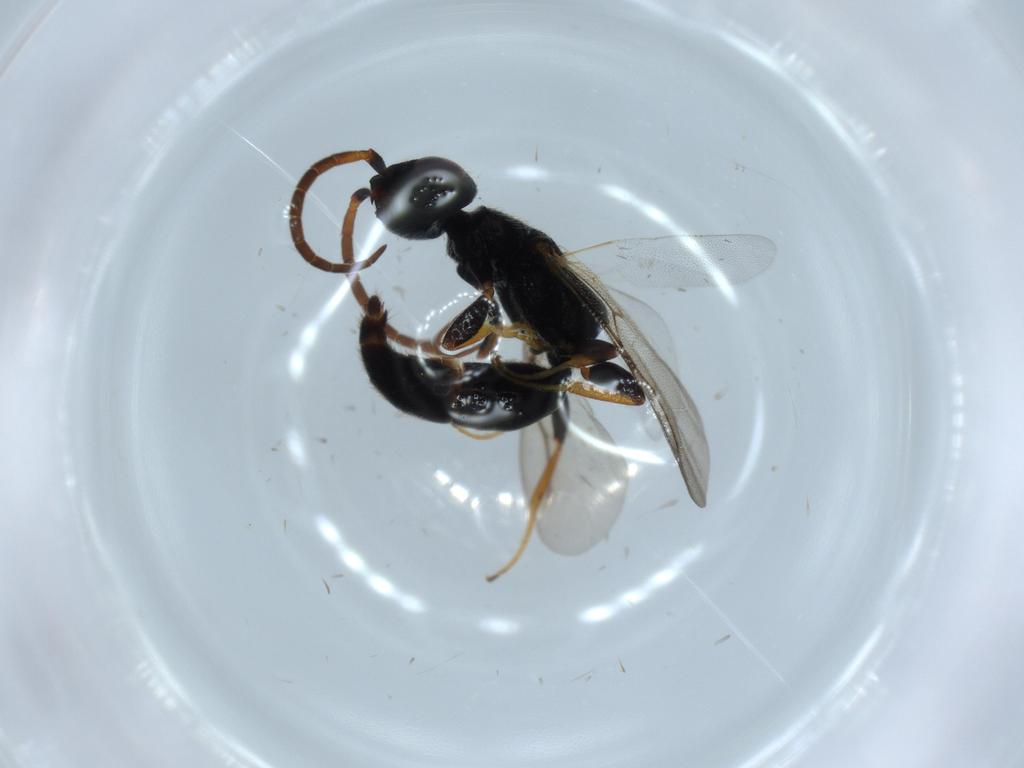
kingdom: Animalia
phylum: Arthropoda
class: Insecta
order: Hymenoptera
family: Bethylidae
